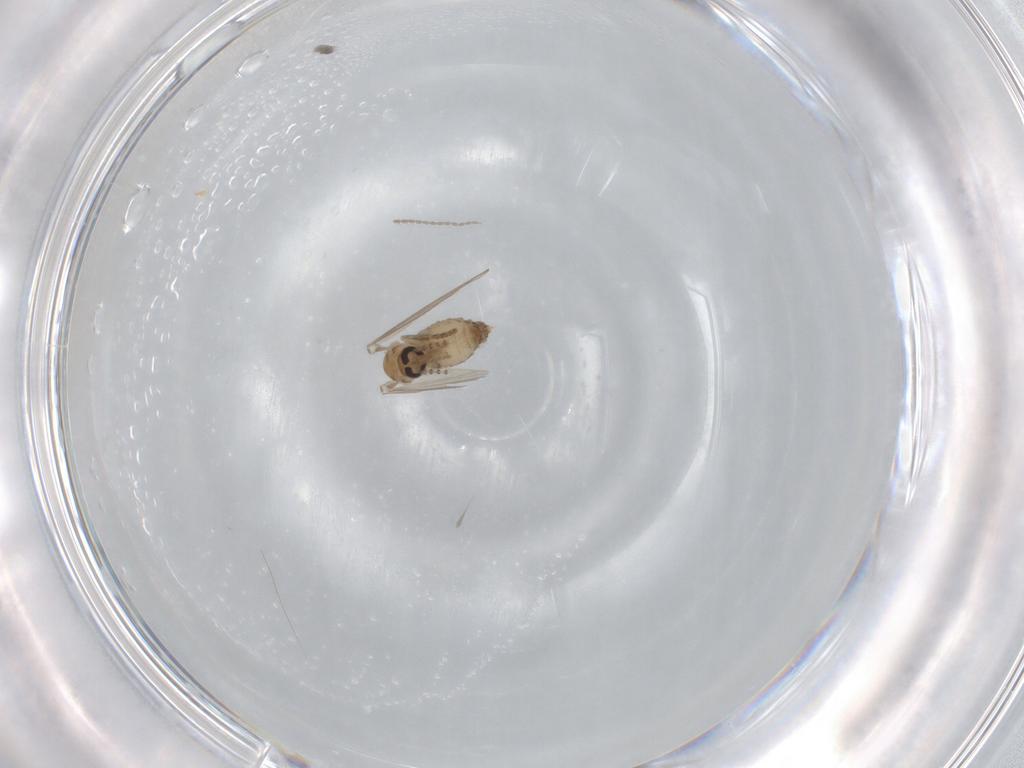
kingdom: Animalia
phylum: Arthropoda
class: Insecta
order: Diptera
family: Psychodidae
